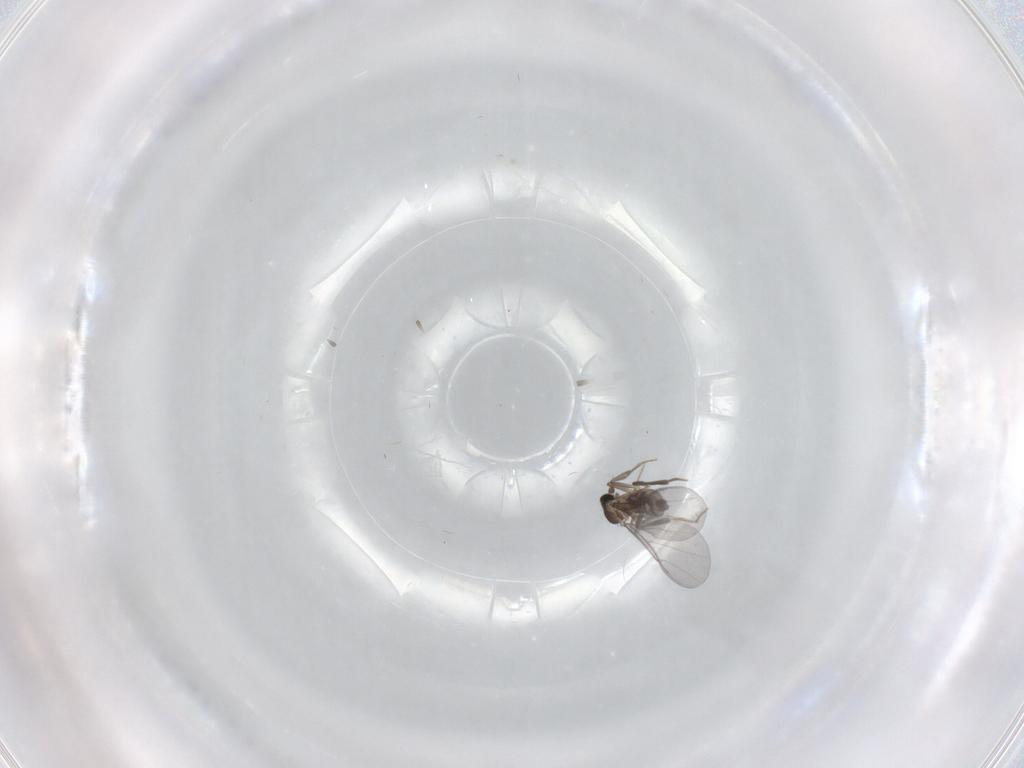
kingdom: Animalia
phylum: Arthropoda
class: Insecta
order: Diptera
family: Phoridae
